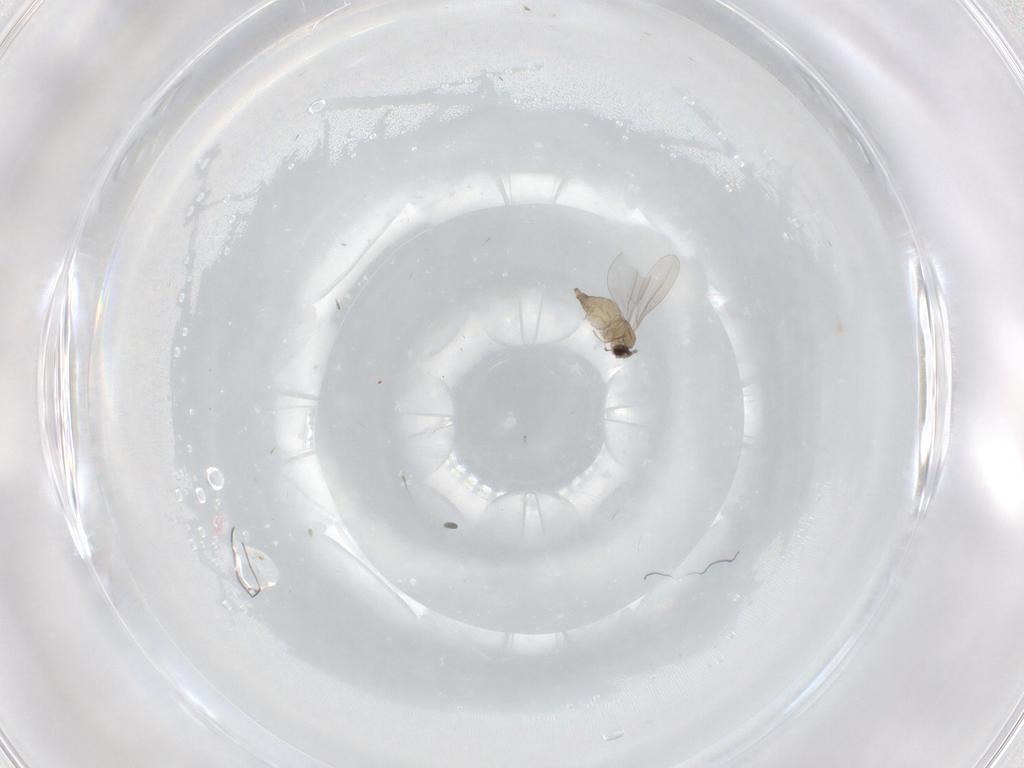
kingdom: Animalia
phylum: Arthropoda
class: Insecta
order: Diptera
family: Cecidomyiidae
